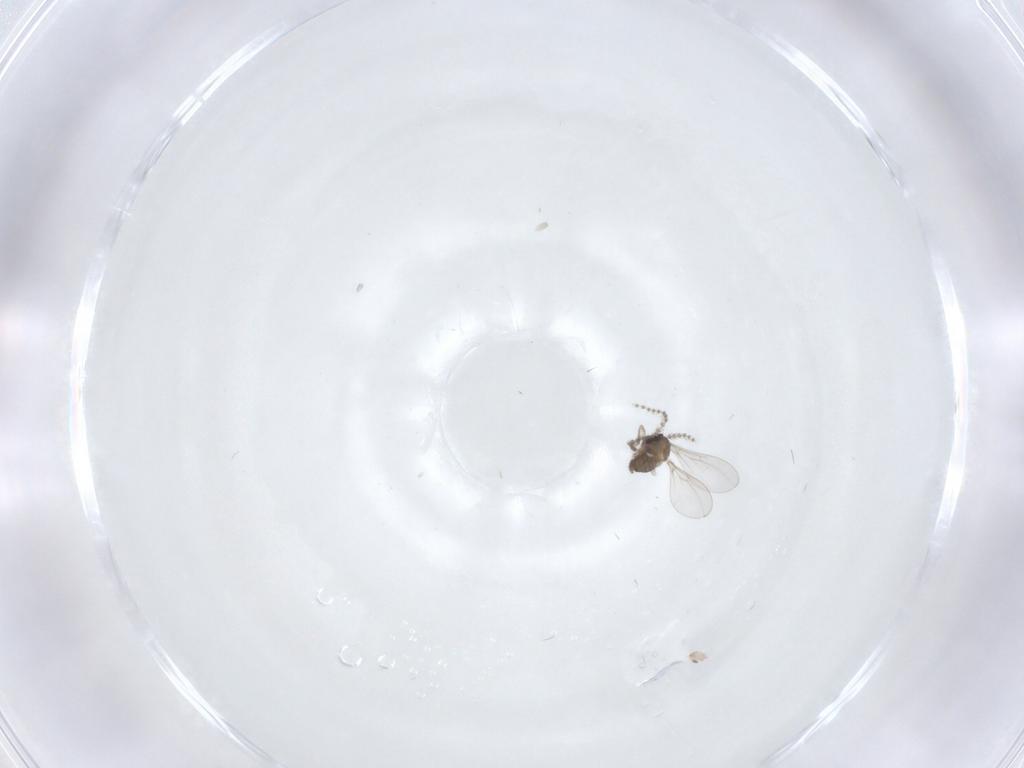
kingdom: Animalia
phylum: Arthropoda
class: Insecta
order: Diptera
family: Cecidomyiidae
